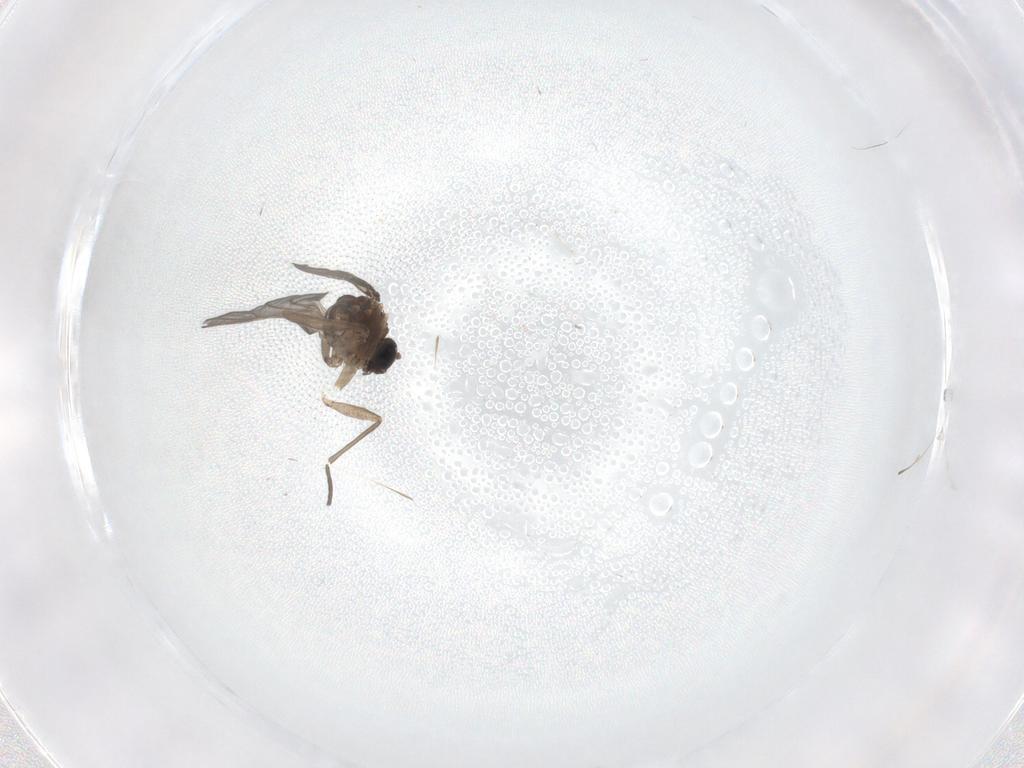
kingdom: Animalia
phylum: Arthropoda
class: Insecta
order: Diptera
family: Sciaridae
